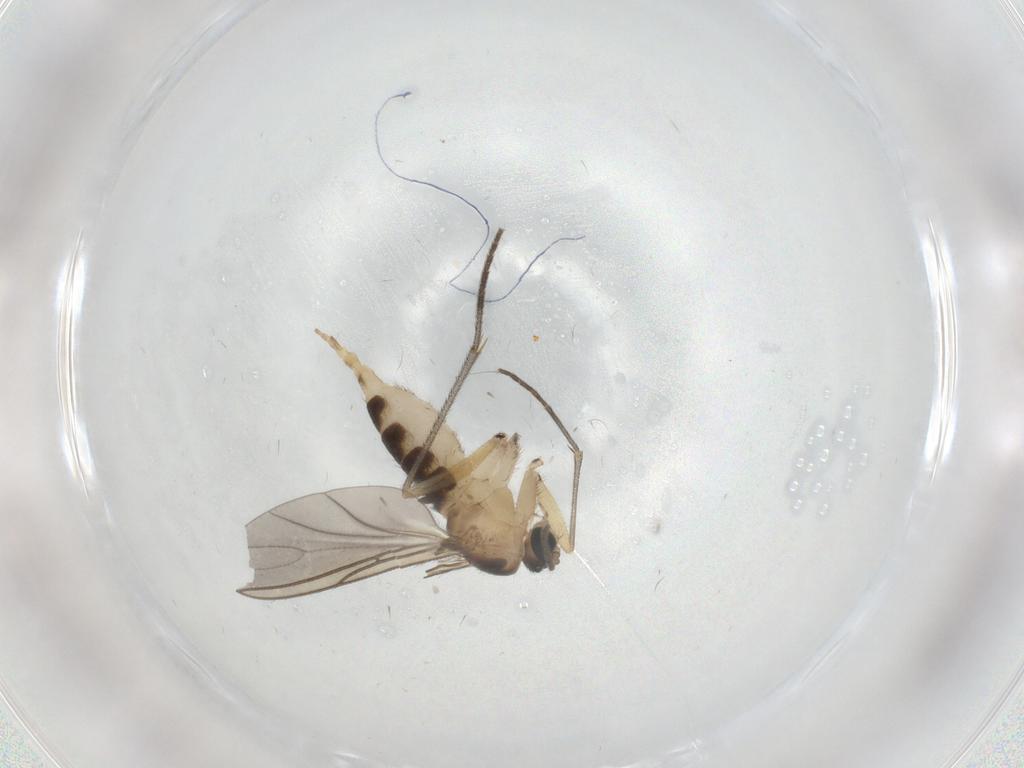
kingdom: Animalia
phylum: Arthropoda
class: Insecta
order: Diptera
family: Sciaridae
